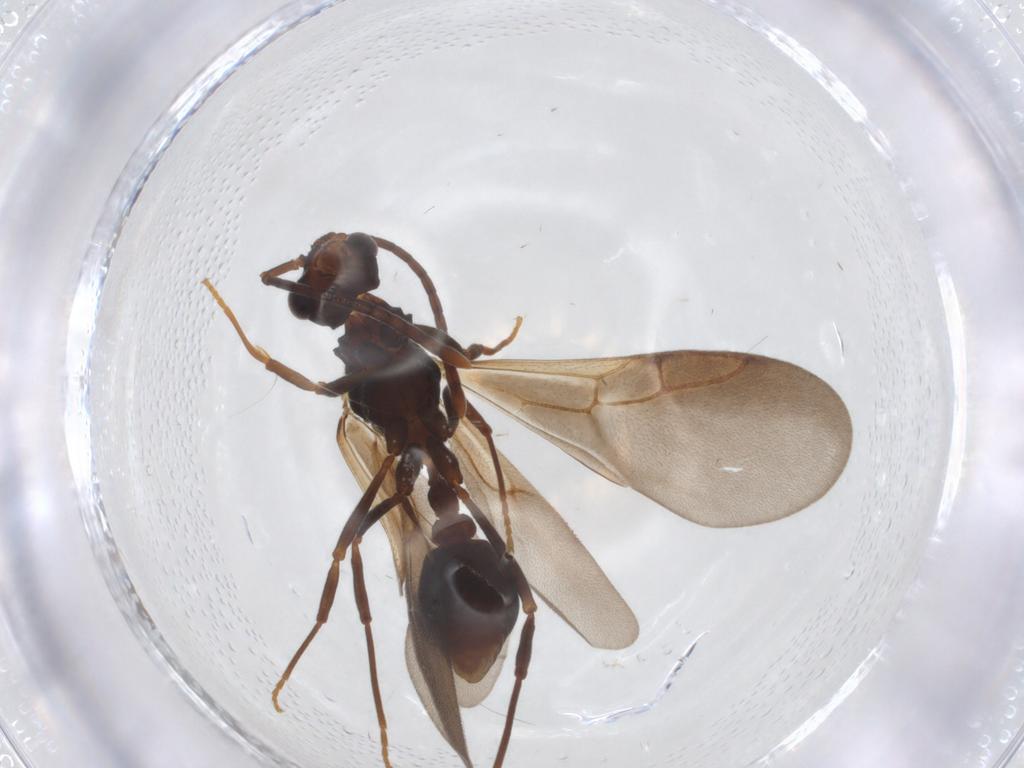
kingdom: Animalia
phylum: Arthropoda
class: Insecta
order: Hymenoptera
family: Formicidae
